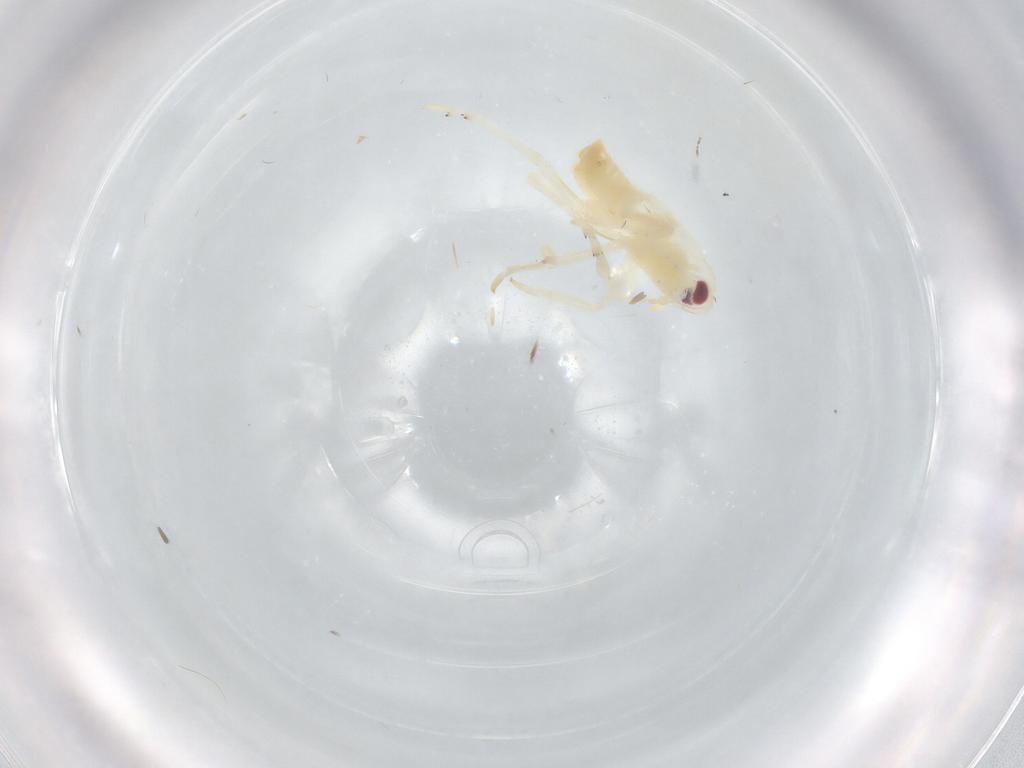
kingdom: Animalia
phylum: Arthropoda
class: Insecta
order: Hemiptera
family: Flatidae
